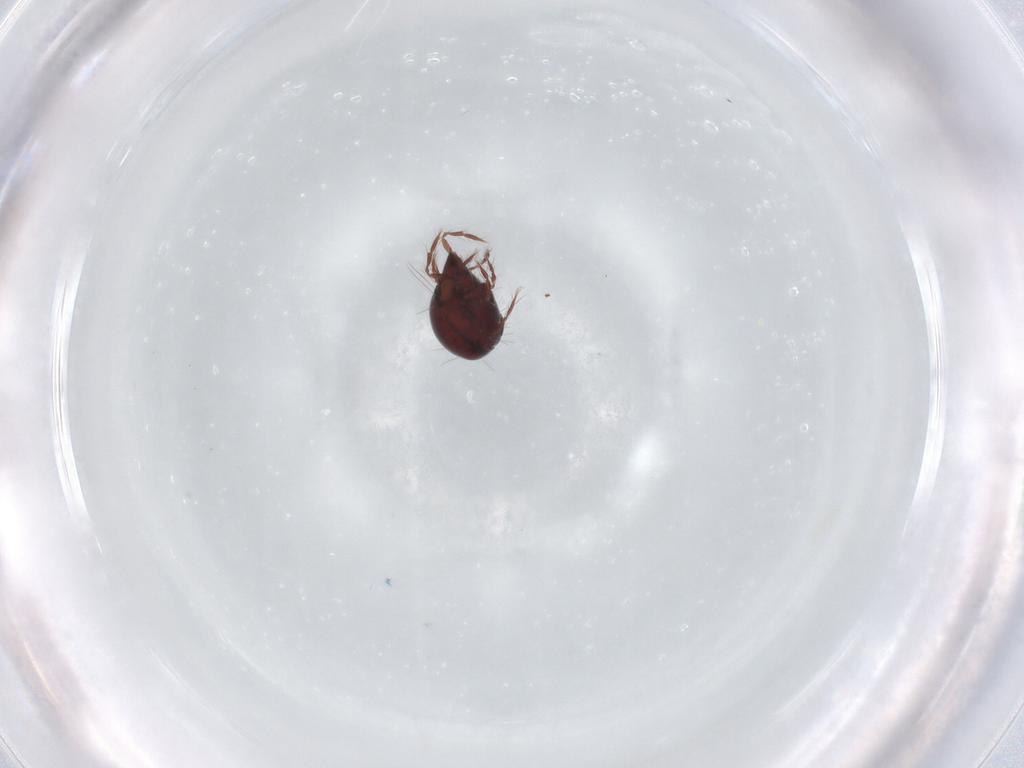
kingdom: Animalia
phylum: Arthropoda
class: Arachnida
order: Sarcoptiformes
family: Ceratoppiidae
